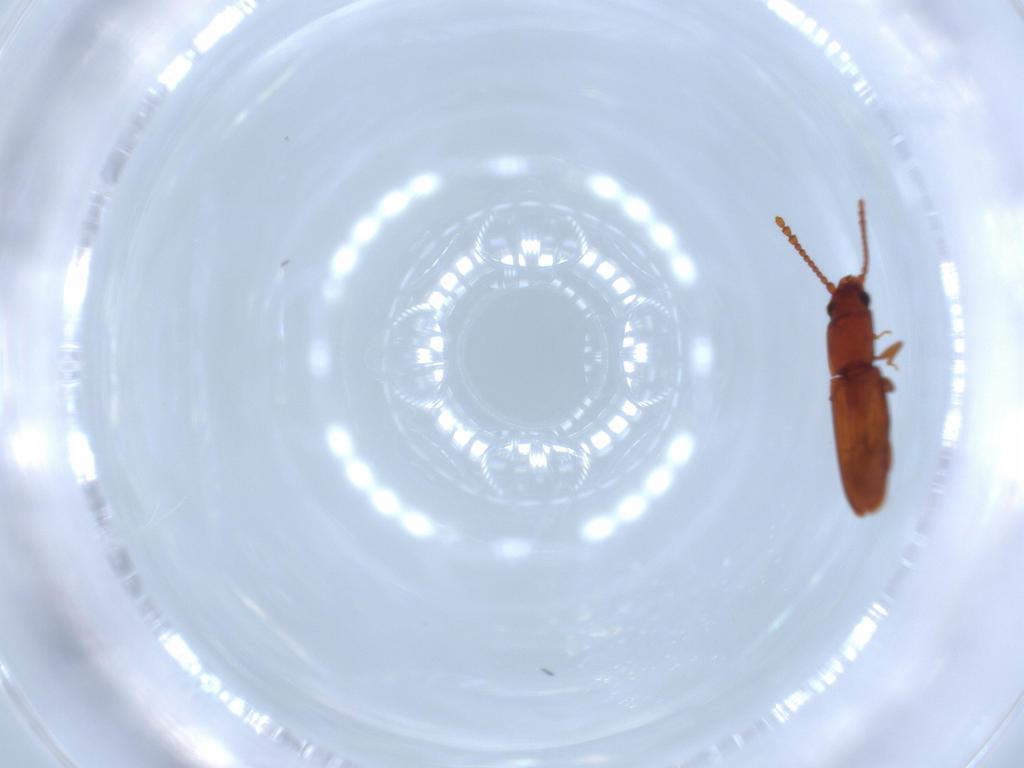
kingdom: Animalia
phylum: Arthropoda
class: Insecta
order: Coleoptera
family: Laemophloeidae
